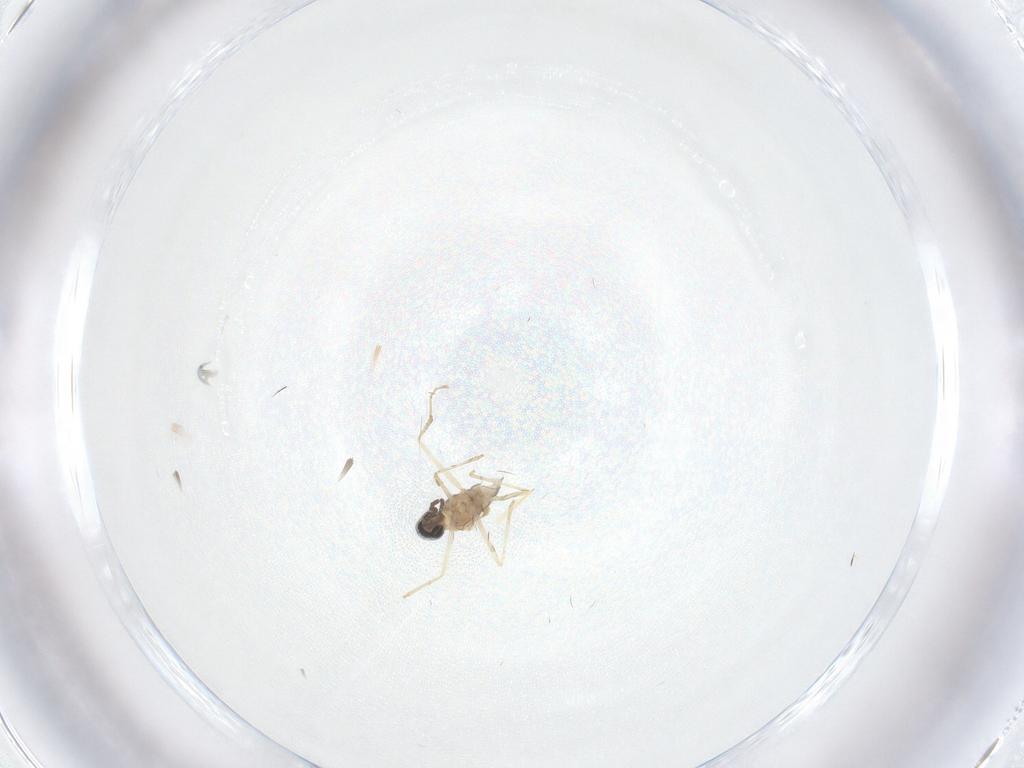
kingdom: Animalia
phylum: Arthropoda
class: Insecta
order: Diptera
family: Cecidomyiidae
